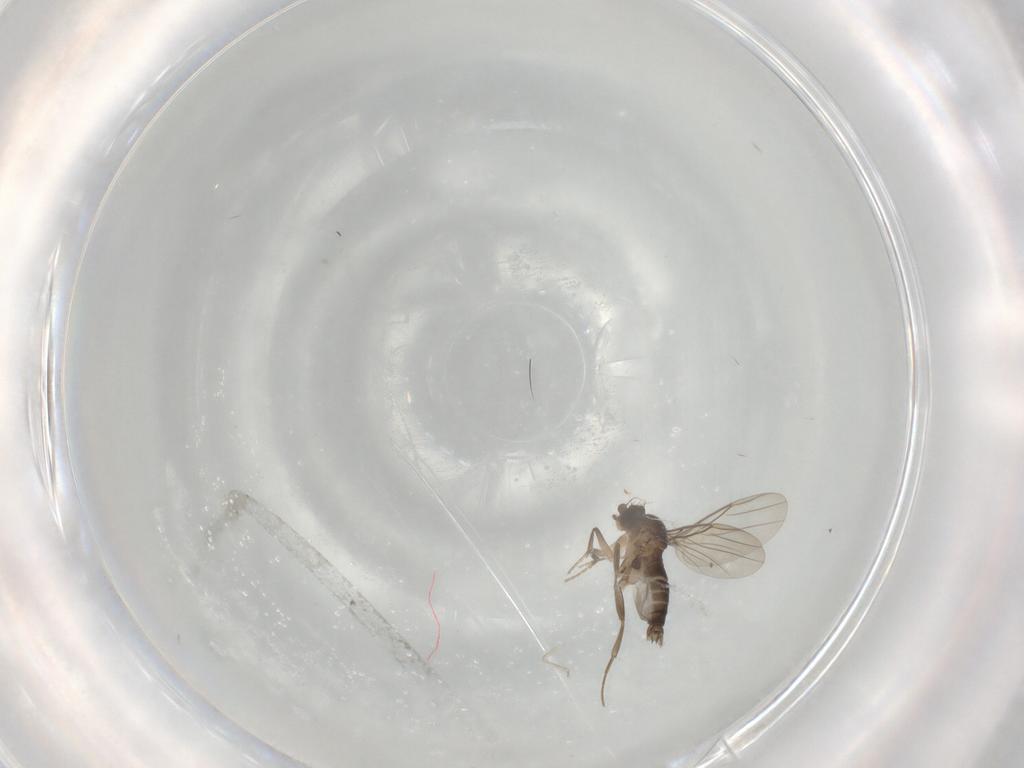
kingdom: Animalia
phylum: Arthropoda
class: Insecta
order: Diptera
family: Phoridae
